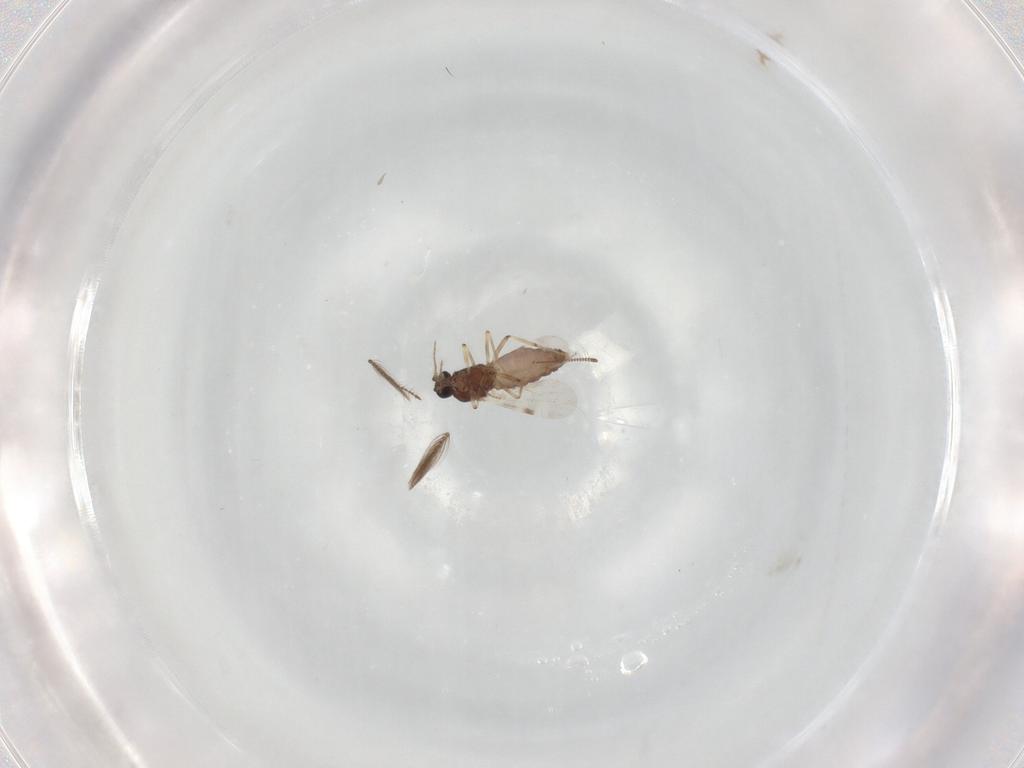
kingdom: Animalia
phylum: Arthropoda
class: Insecta
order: Diptera
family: Ceratopogonidae
